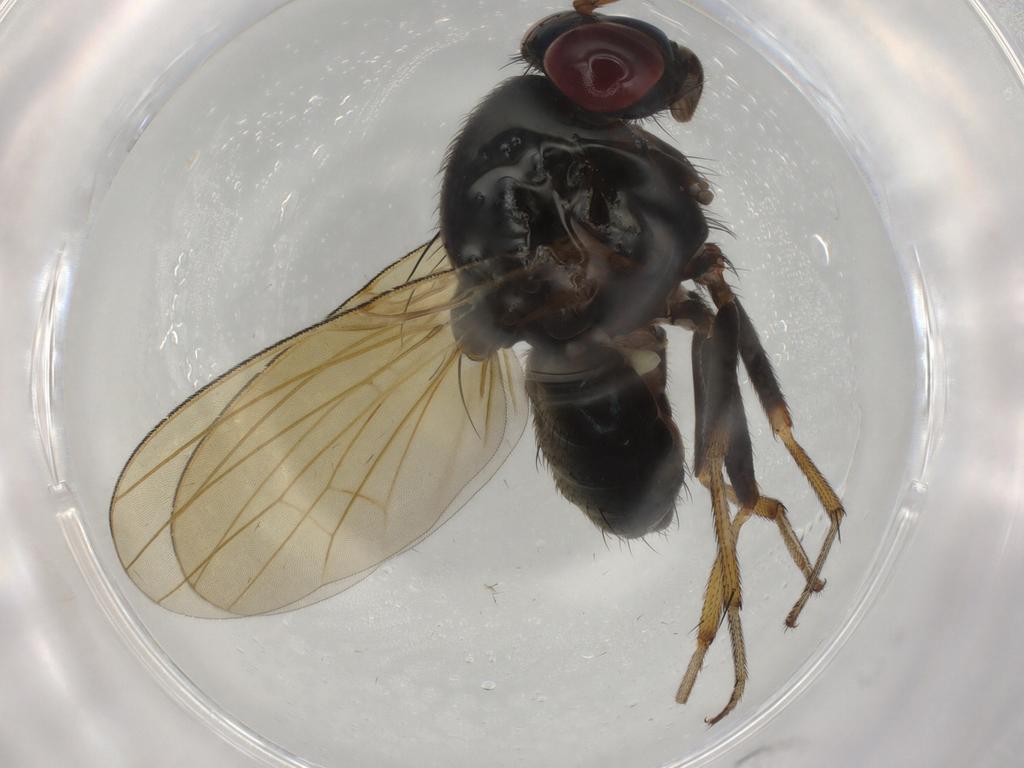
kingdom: Animalia
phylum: Arthropoda
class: Insecta
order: Diptera
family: Lauxaniidae
